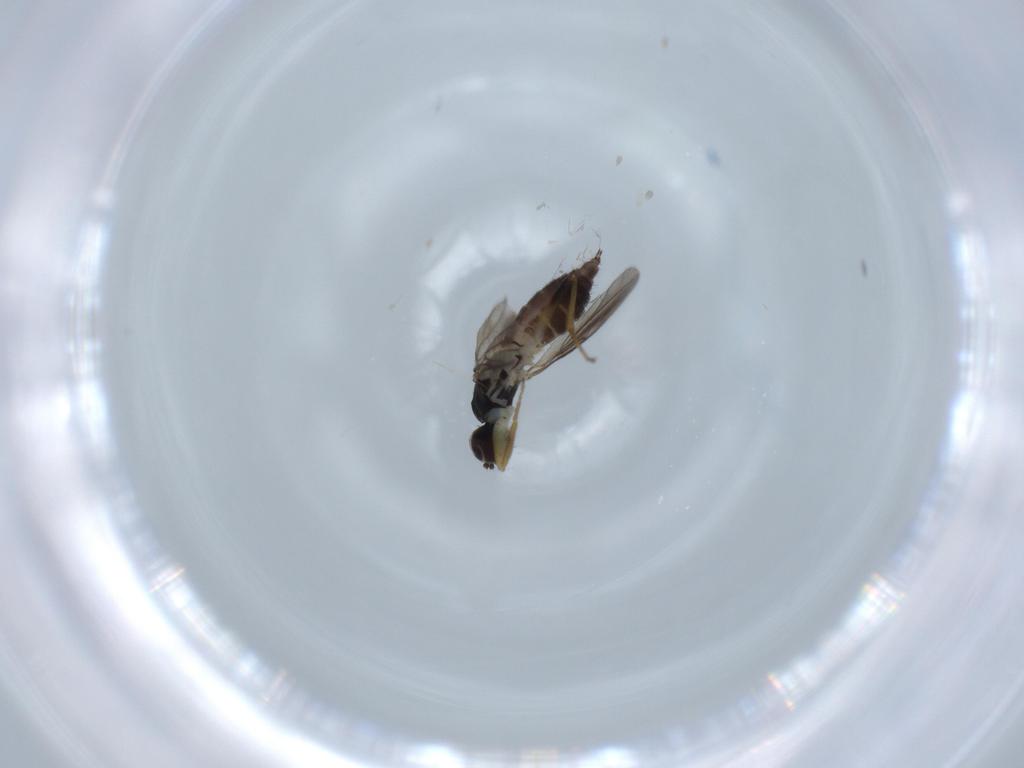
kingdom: Animalia
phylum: Arthropoda
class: Insecta
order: Diptera
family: Hybotidae
